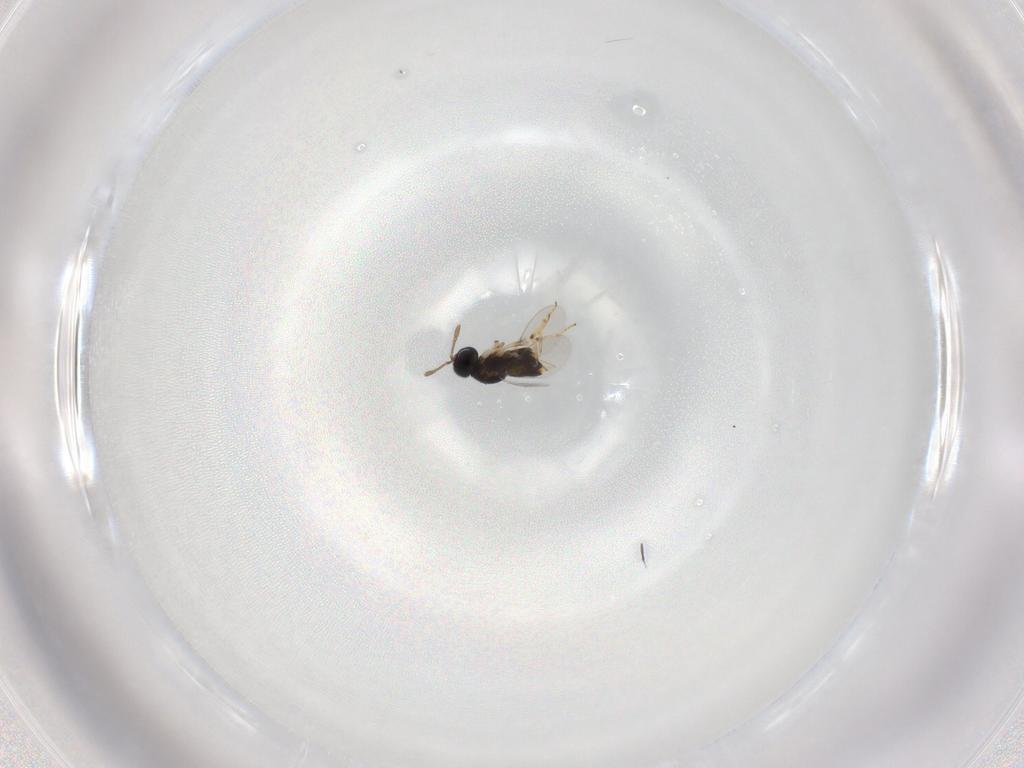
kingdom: Animalia
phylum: Arthropoda
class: Insecta
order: Hymenoptera
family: Encyrtidae
